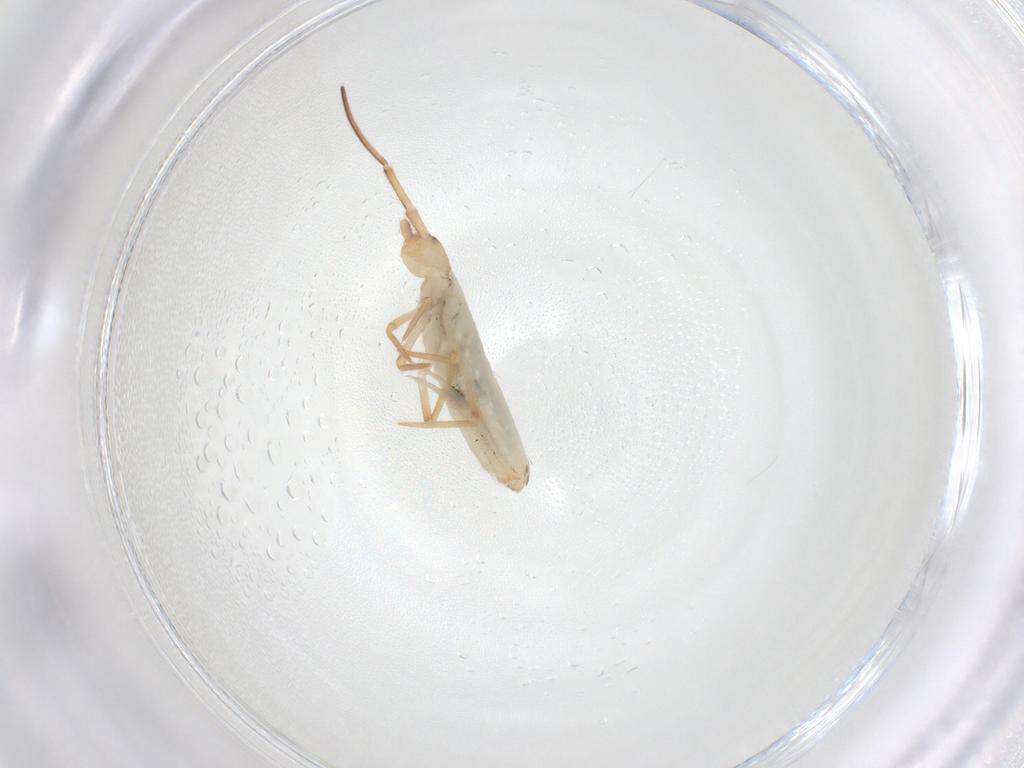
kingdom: Animalia
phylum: Arthropoda
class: Collembola
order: Entomobryomorpha
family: Entomobryidae
